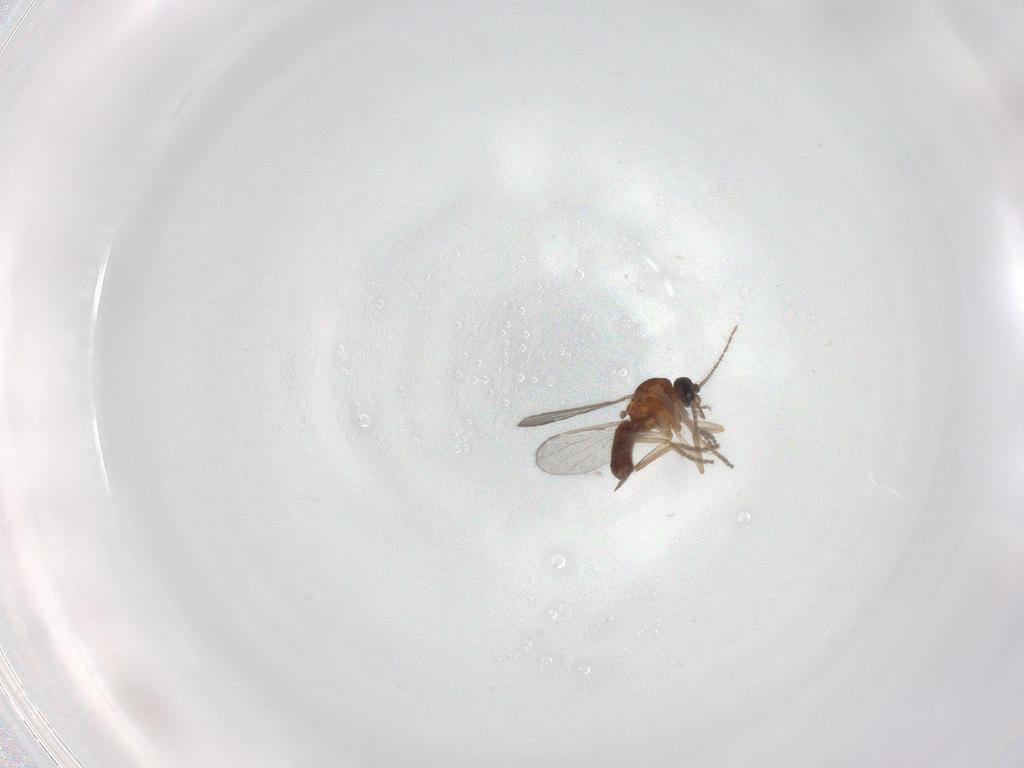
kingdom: Animalia
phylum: Arthropoda
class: Insecta
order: Diptera
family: Ceratopogonidae
